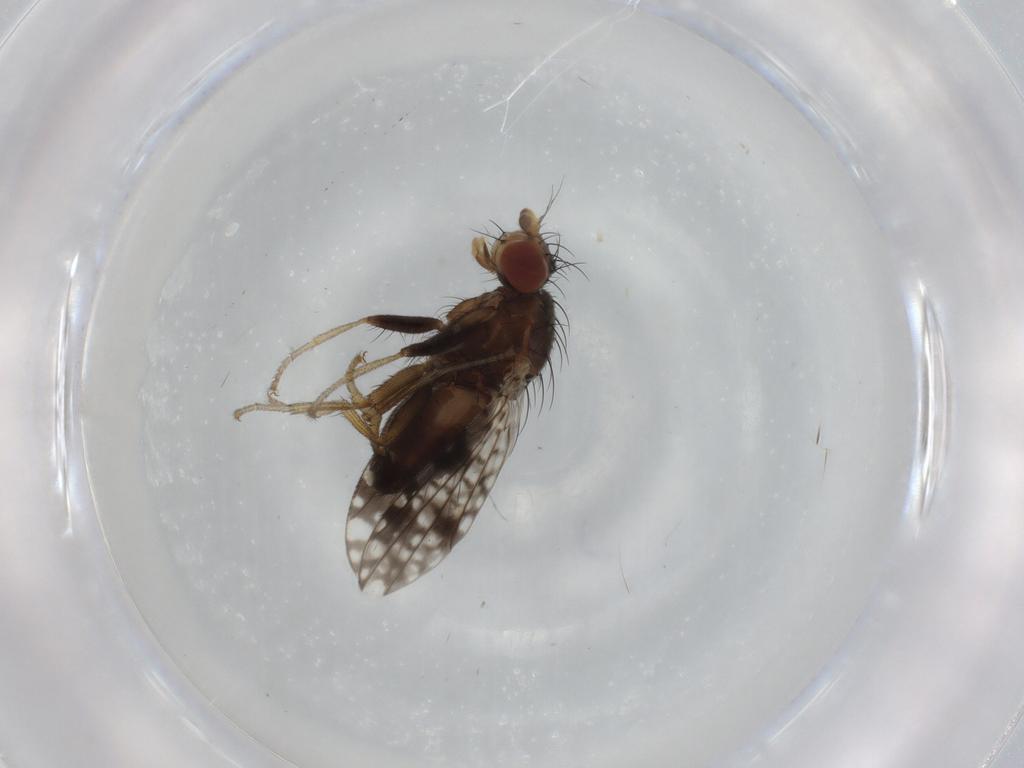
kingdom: Animalia
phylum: Arthropoda
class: Insecta
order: Diptera
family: Tephritidae
